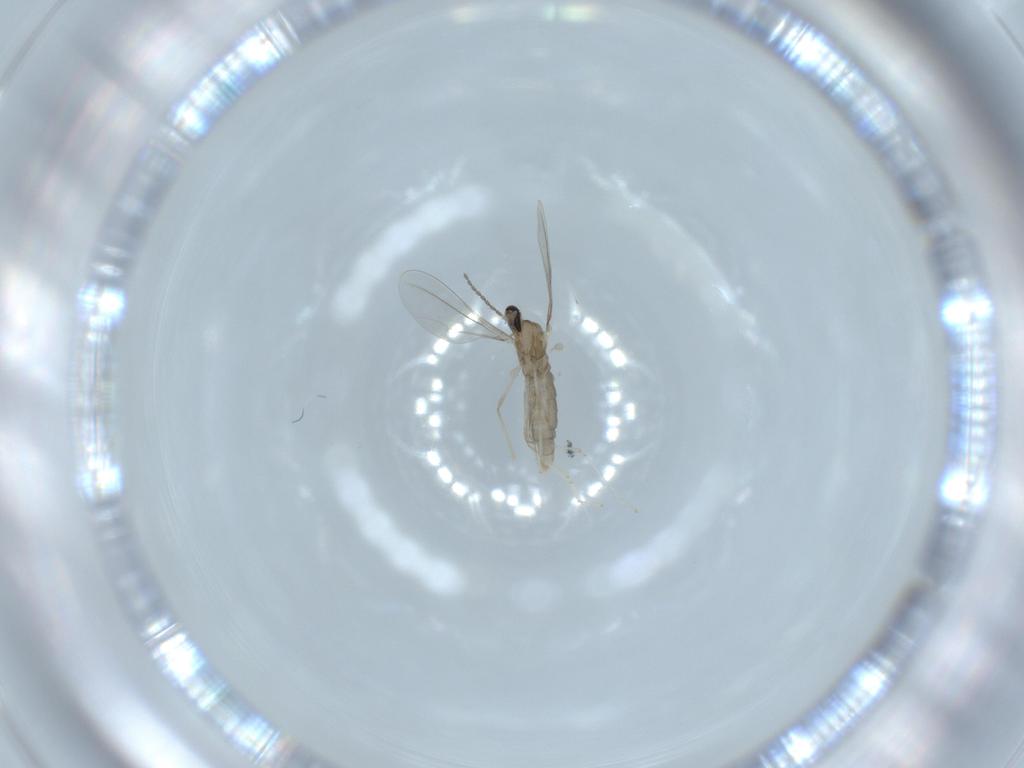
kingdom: Animalia
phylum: Arthropoda
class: Insecta
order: Diptera
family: Cecidomyiidae
